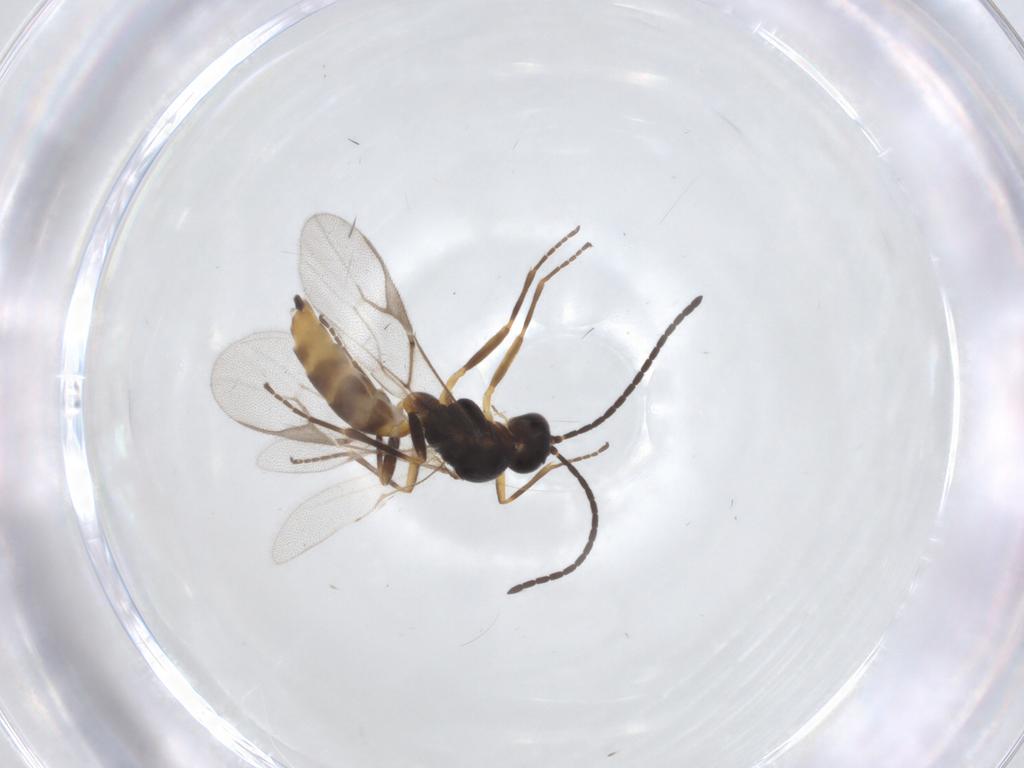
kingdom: Animalia
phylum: Arthropoda
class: Insecta
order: Hymenoptera
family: Braconidae
